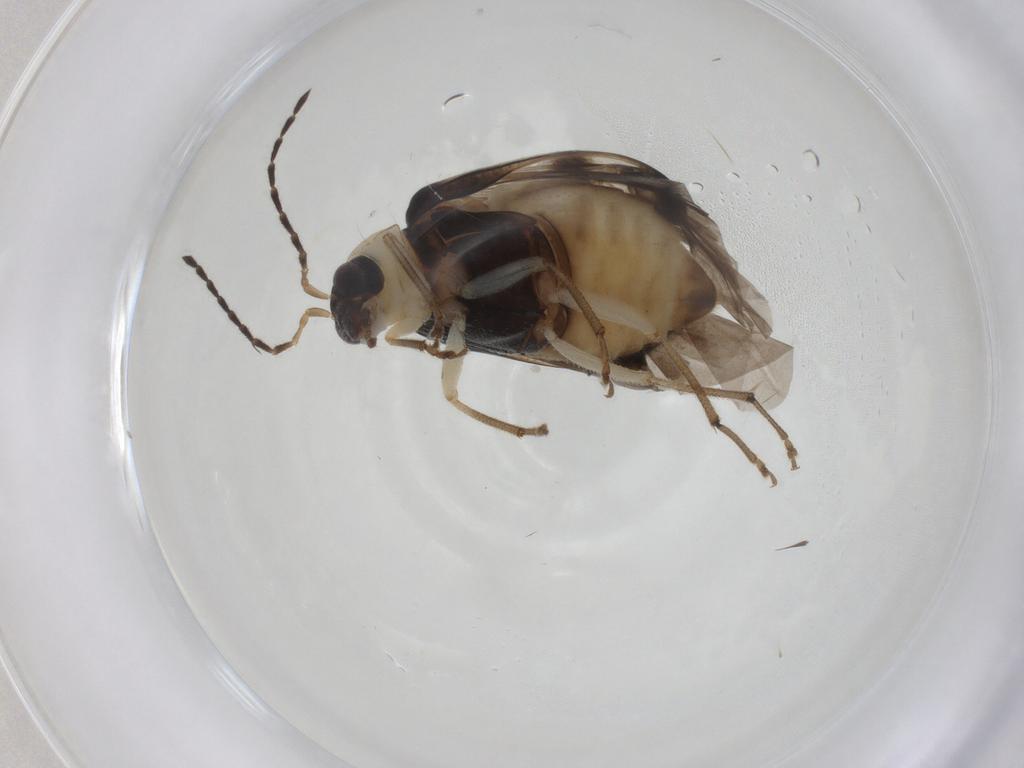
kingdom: Animalia
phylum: Arthropoda
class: Insecta
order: Coleoptera
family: Chrysomelidae
